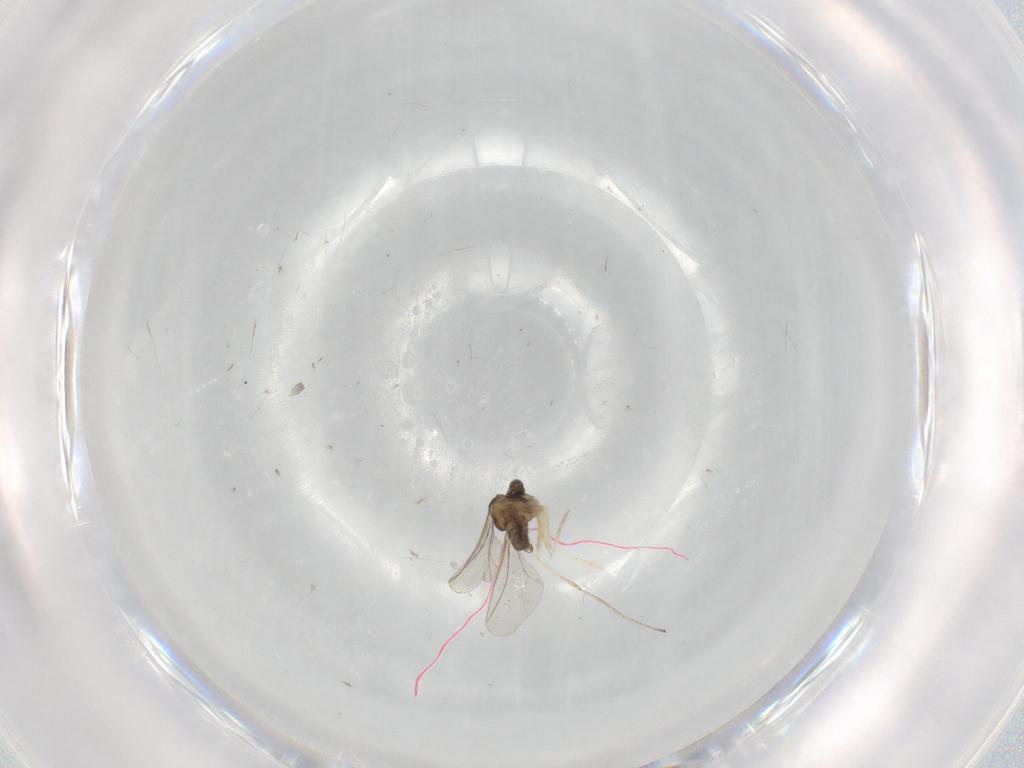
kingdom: Animalia
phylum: Arthropoda
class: Insecta
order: Diptera
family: Cecidomyiidae
